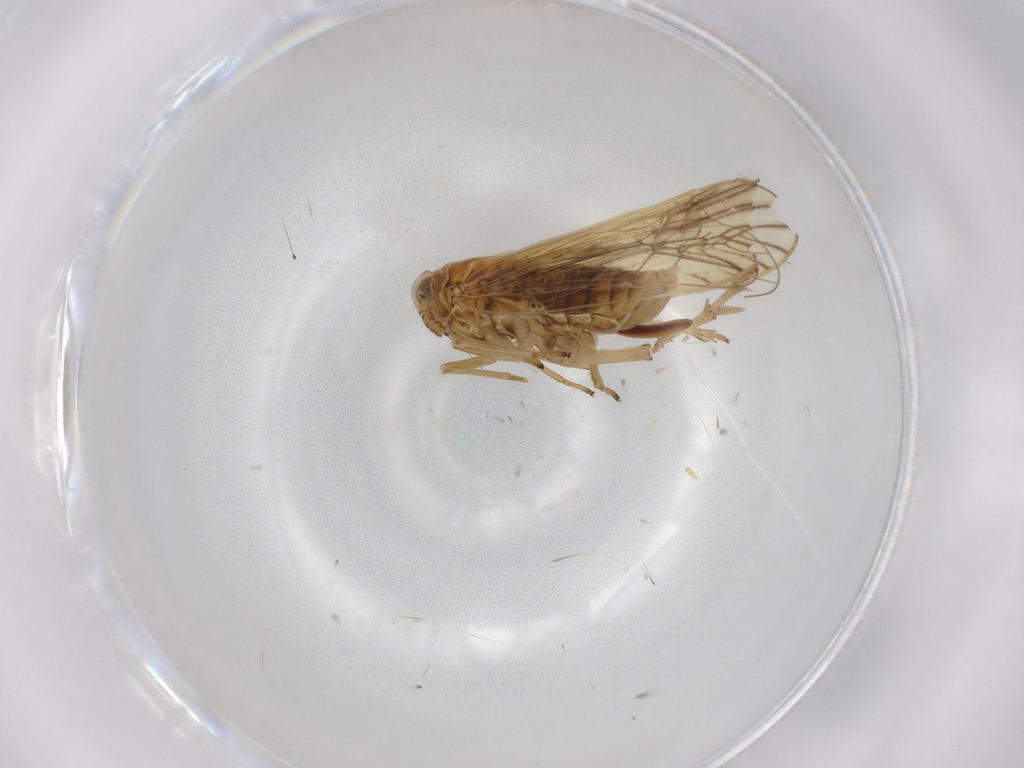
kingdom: Animalia
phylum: Arthropoda
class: Insecta
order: Hemiptera
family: Delphacidae
